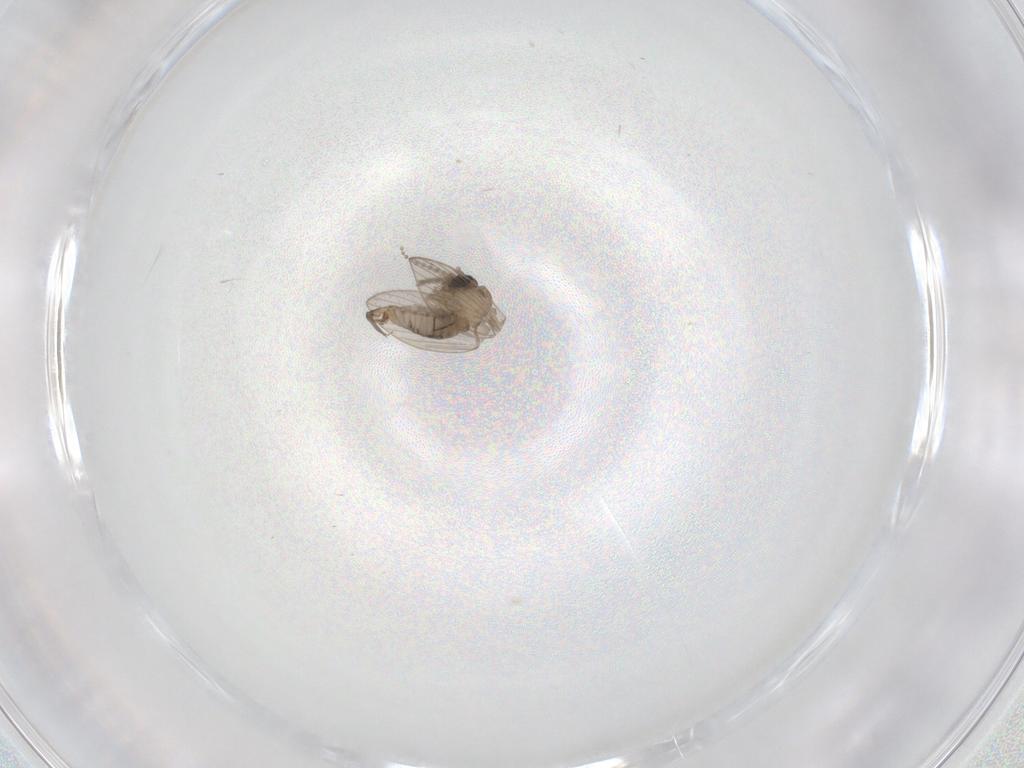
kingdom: Animalia
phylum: Arthropoda
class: Insecta
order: Diptera
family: Psychodidae
